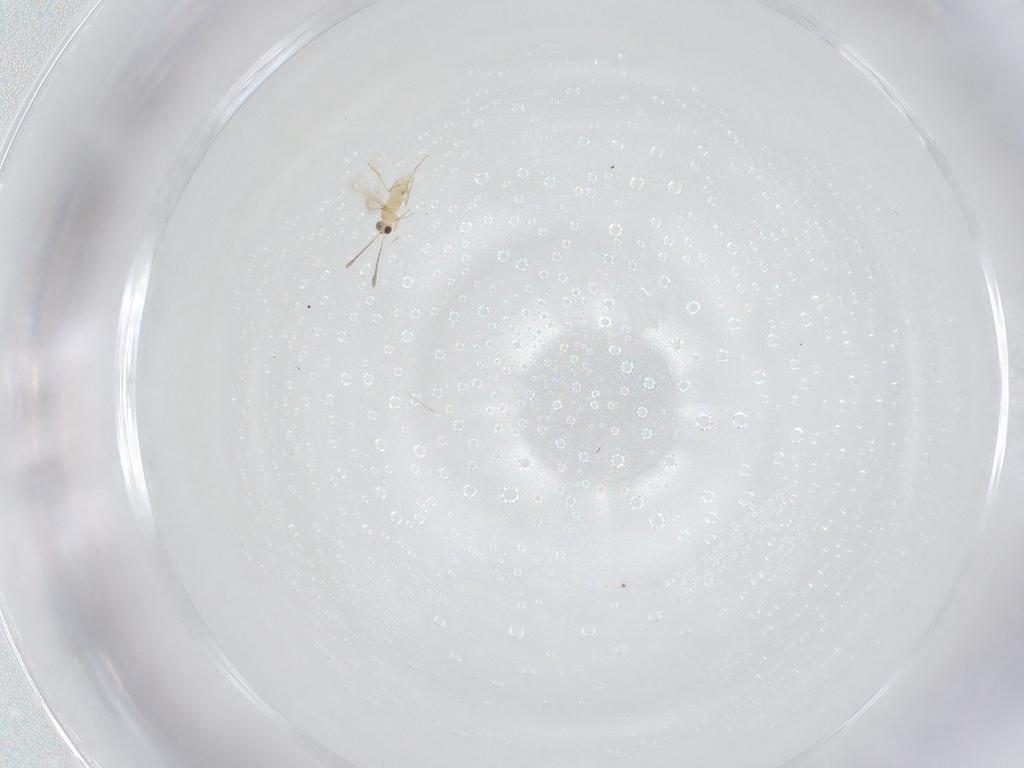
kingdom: Animalia
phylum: Arthropoda
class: Insecta
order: Hymenoptera
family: Mymaridae
